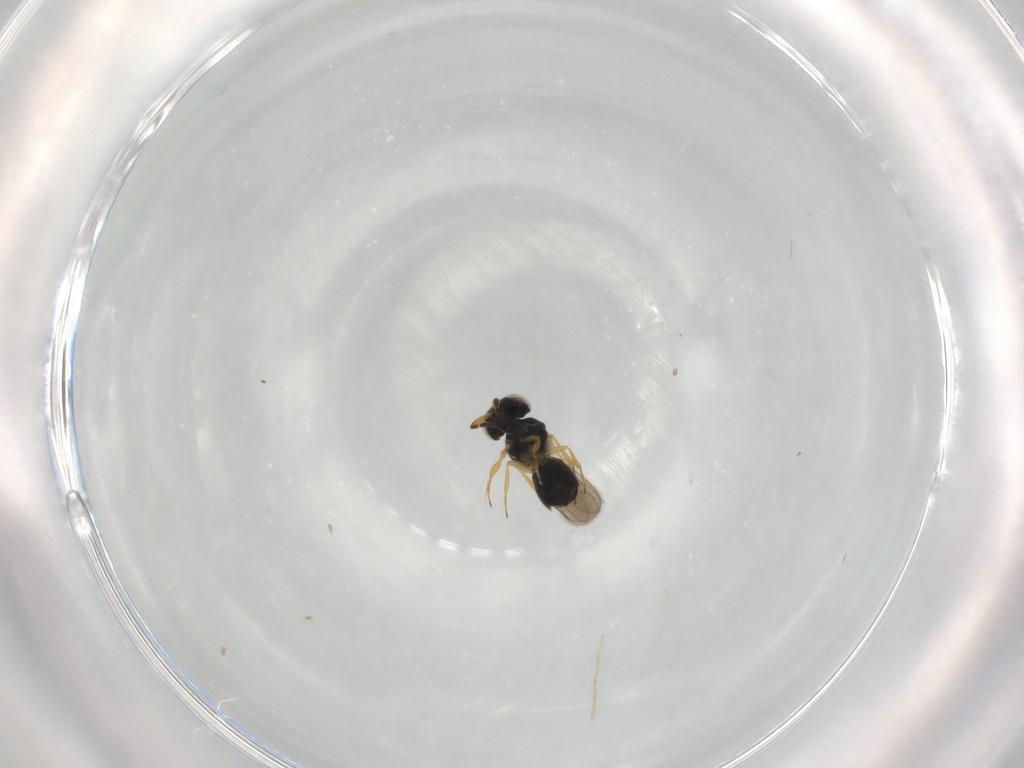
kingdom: Animalia
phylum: Arthropoda
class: Insecta
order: Hymenoptera
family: Scelionidae
